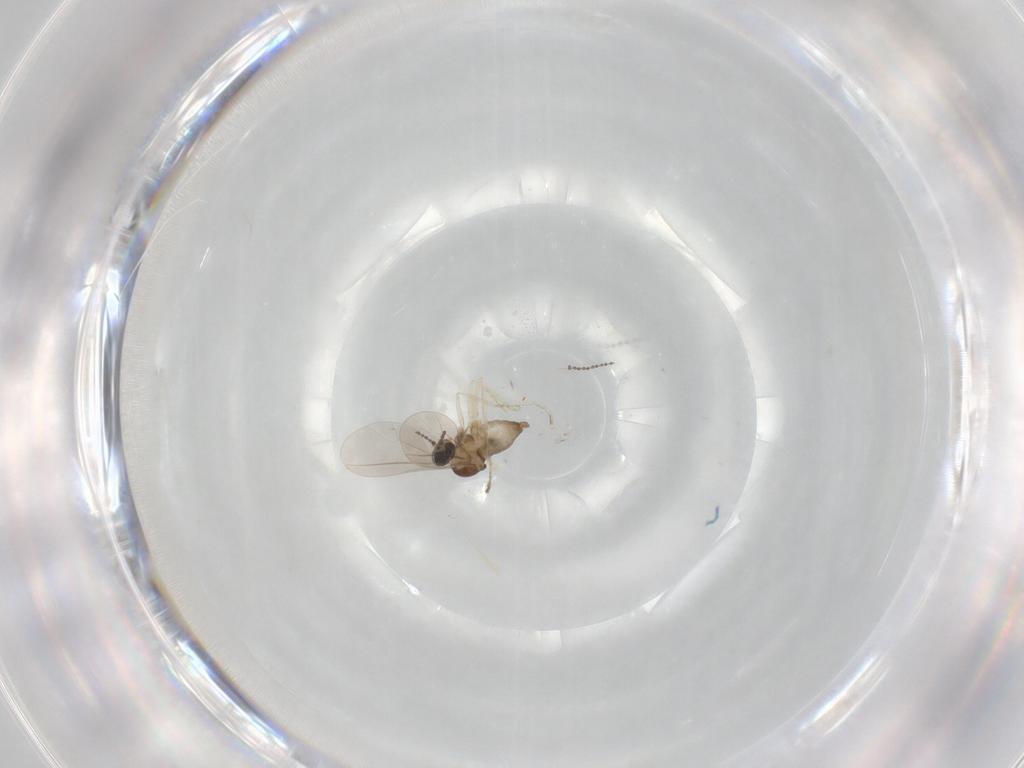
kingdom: Animalia
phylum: Arthropoda
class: Insecta
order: Diptera
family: Cecidomyiidae
